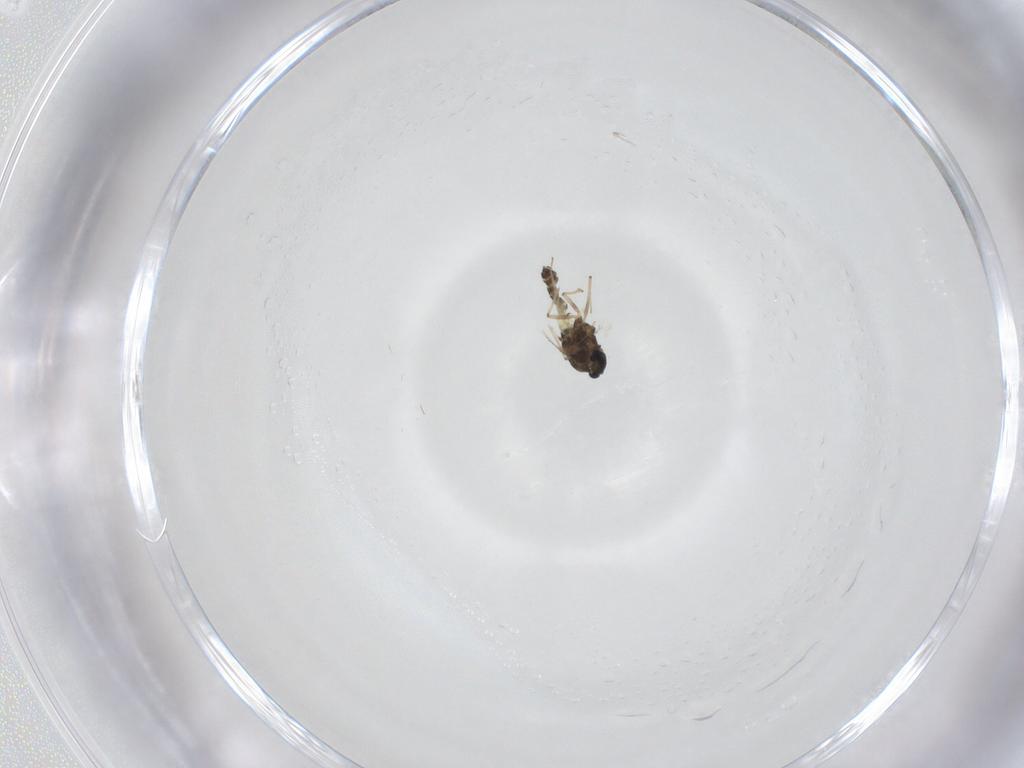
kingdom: Animalia
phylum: Arthropoda
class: Insecta
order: Diptera
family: Chironomidae
